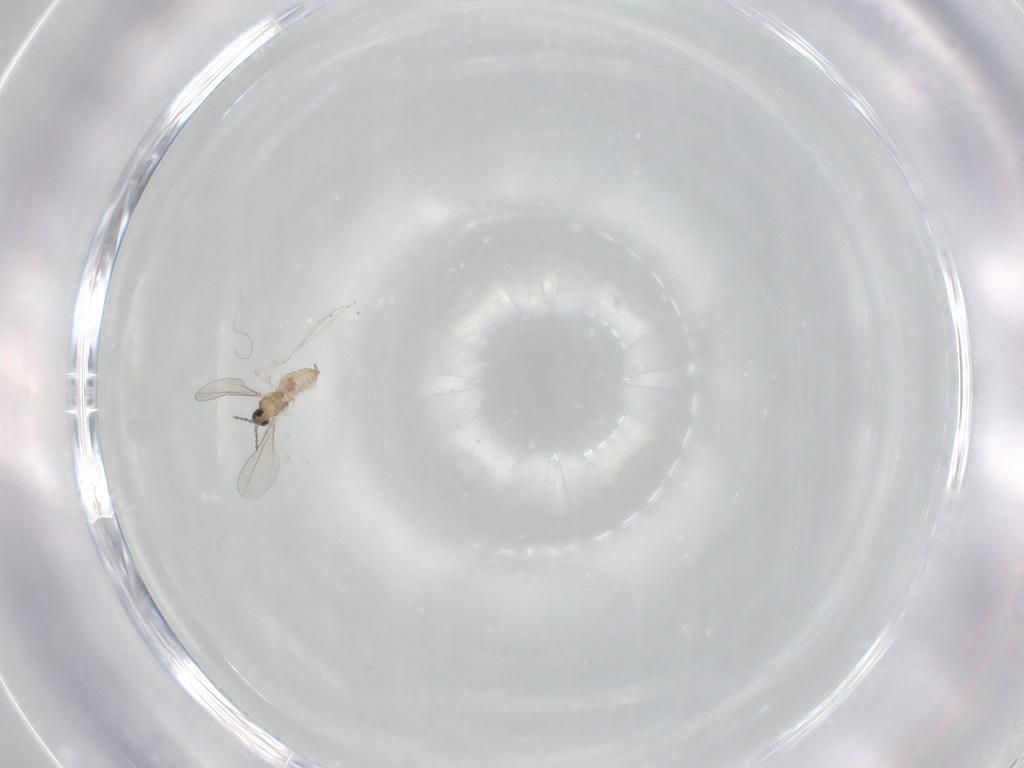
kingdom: Animalia
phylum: Arthropoda
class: Insecta
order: Diptera
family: Cecidomyiidae
